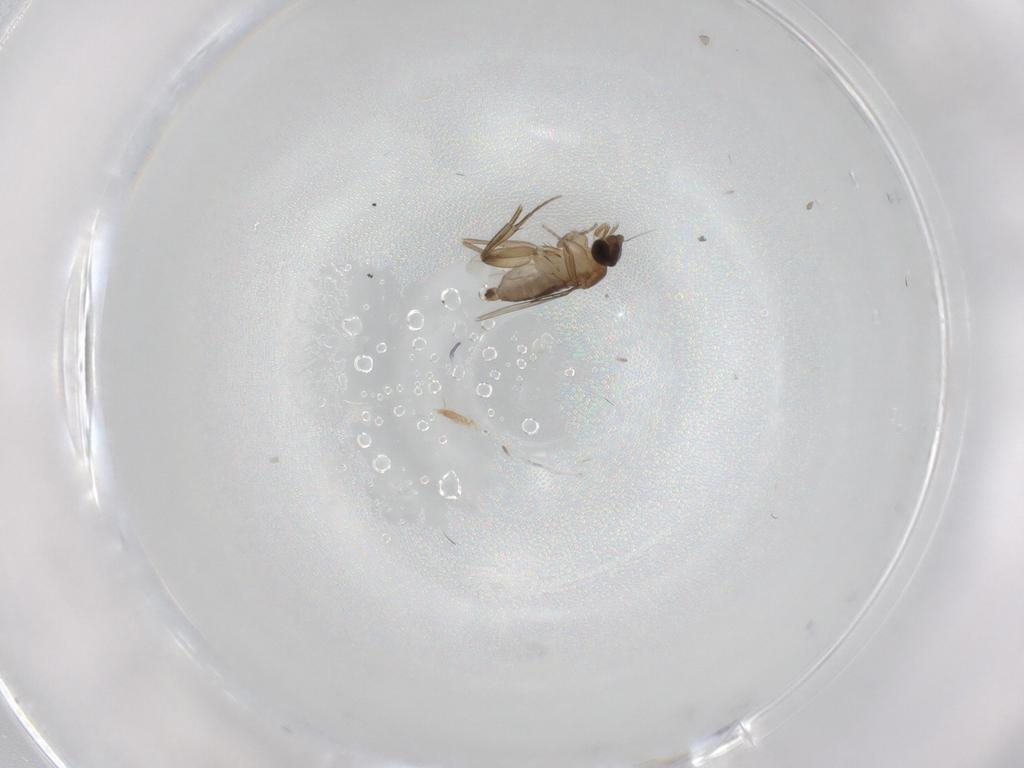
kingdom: Animalia
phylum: Arthropoda
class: Insecta
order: Diptera
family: Phoridae
